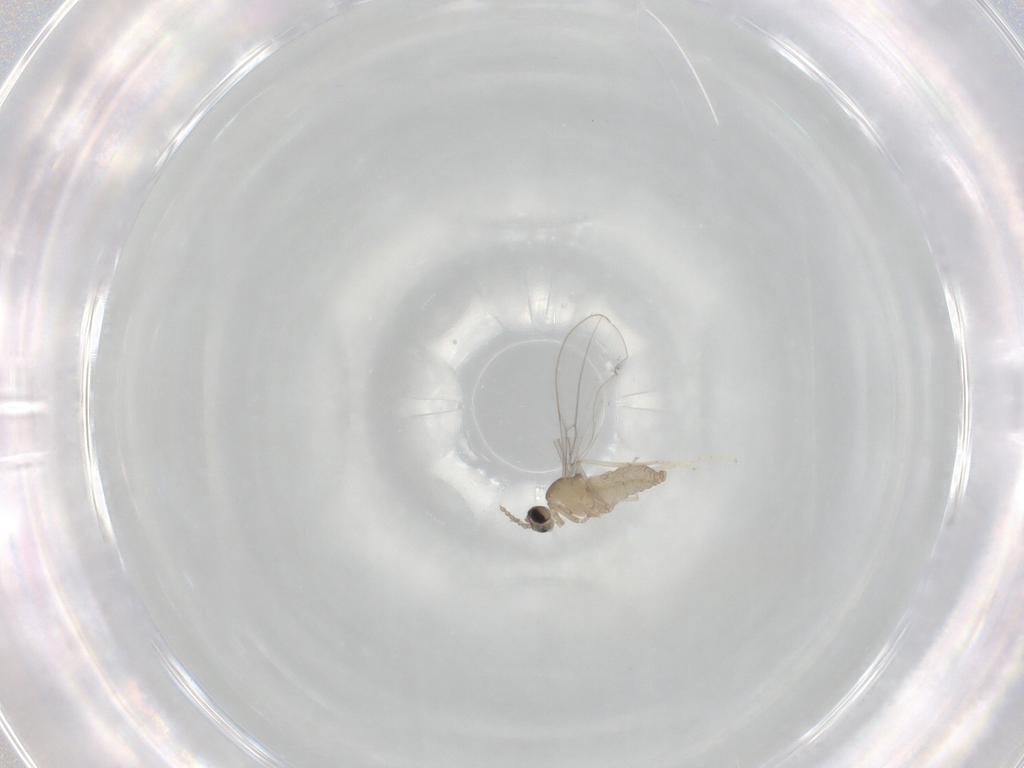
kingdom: Animalia
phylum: Arthropoda
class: Insecta
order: Diptera
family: Cecidomyiidae
